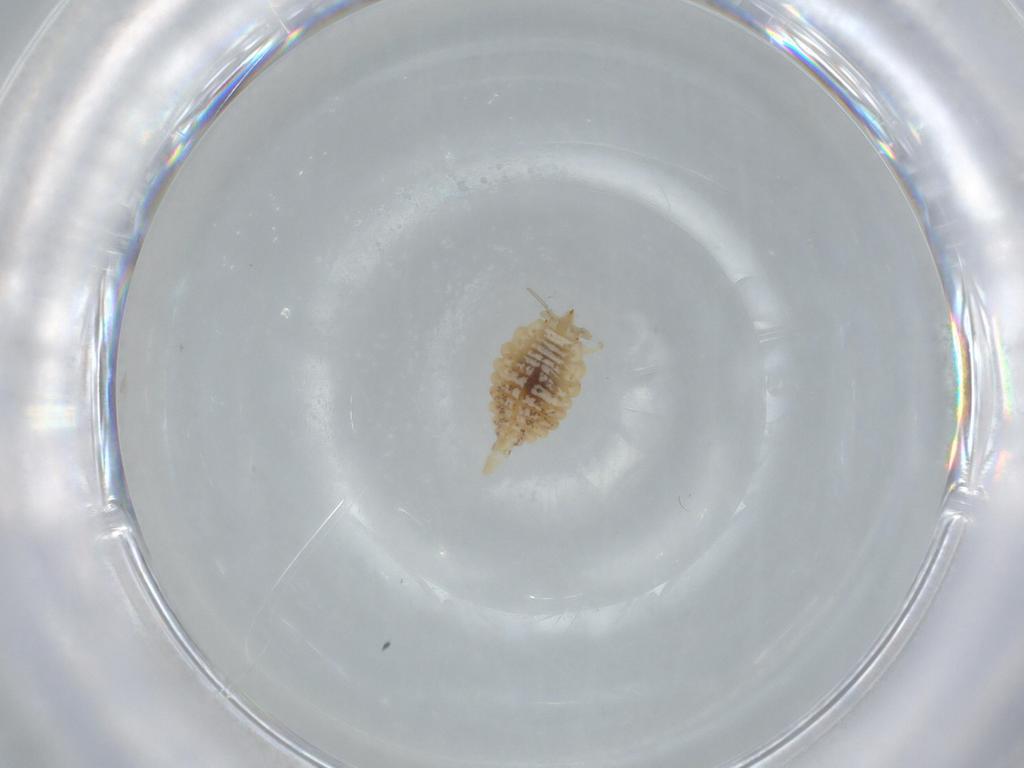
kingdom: Animalia
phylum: Arthropoda
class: Insecta
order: Neuroptera
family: Coniopterygidae
